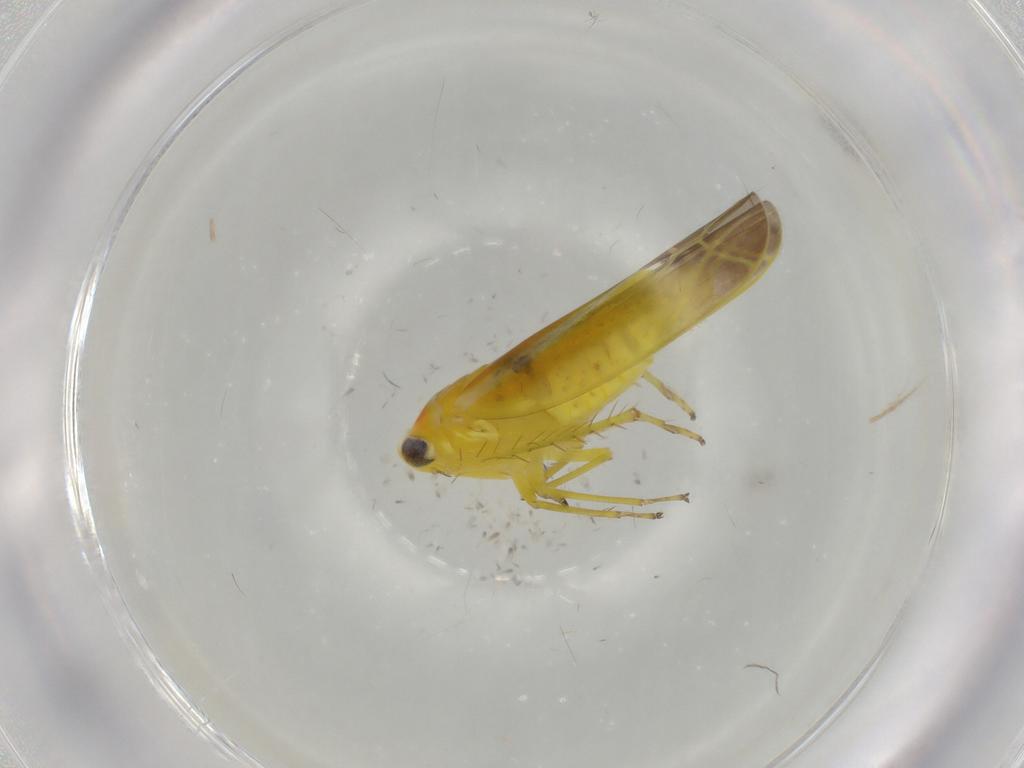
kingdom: Animalia
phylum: Arthropoda
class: Insecta
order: Hemiptera
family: Cicadellidae
